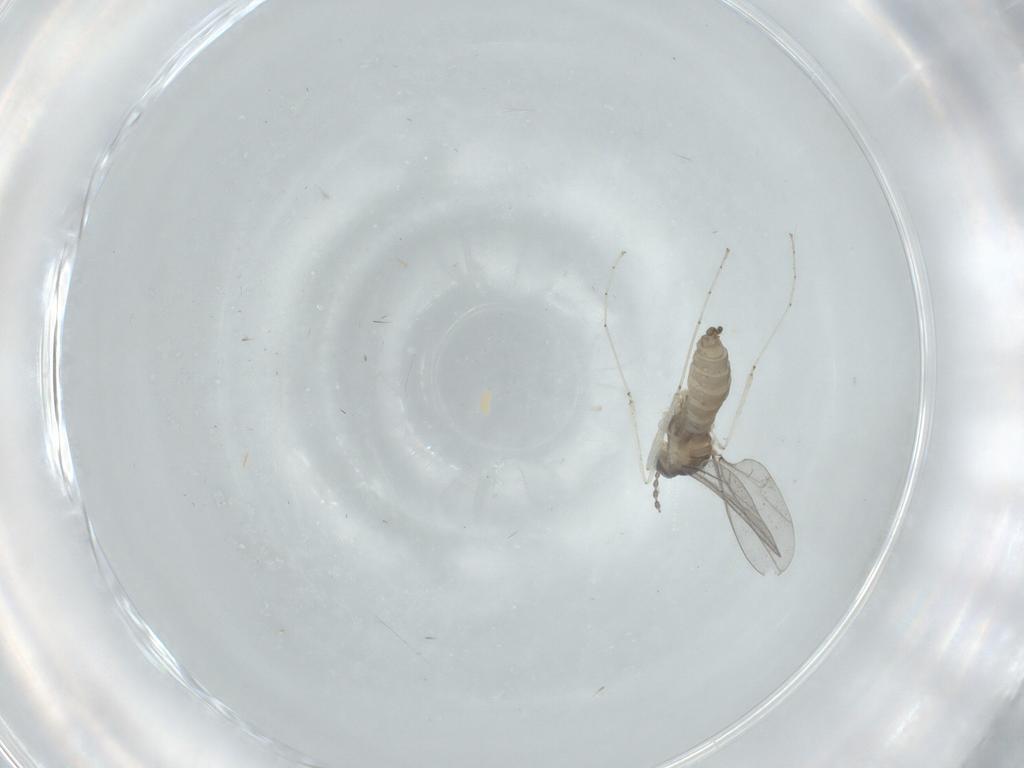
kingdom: Animalia
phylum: Arthropoda
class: Insecta
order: Diptera
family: Cecidomyiidae
